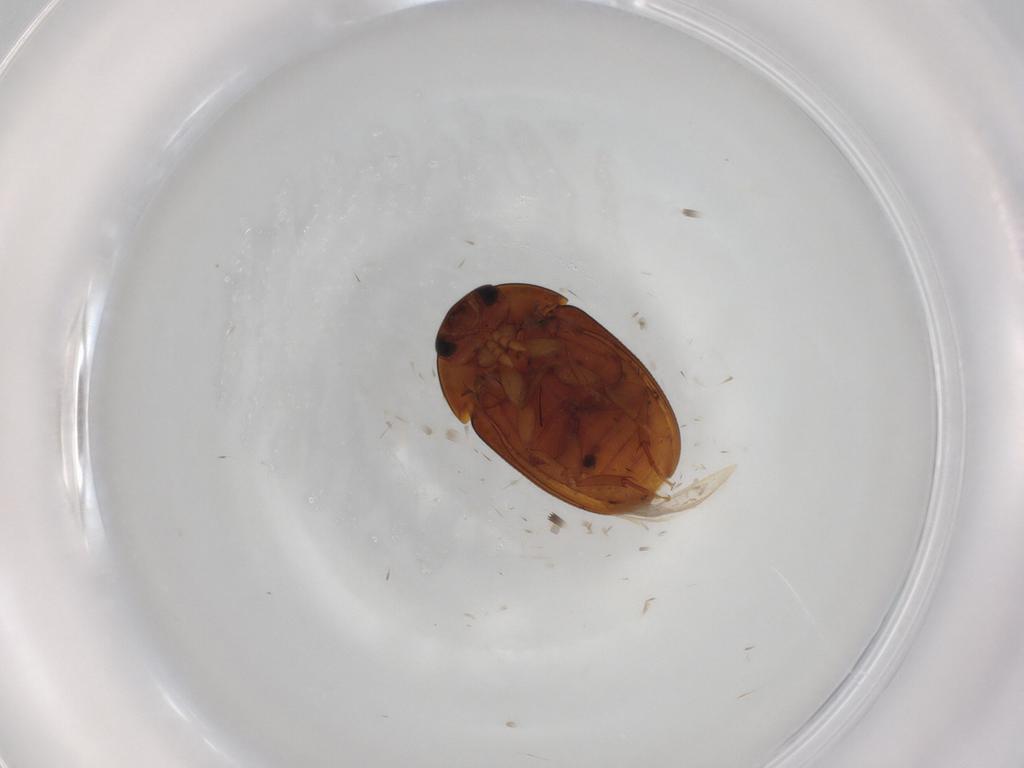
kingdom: Animalia
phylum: Arthropoda
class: Insecta
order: Coleoptera
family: Phalacridae
